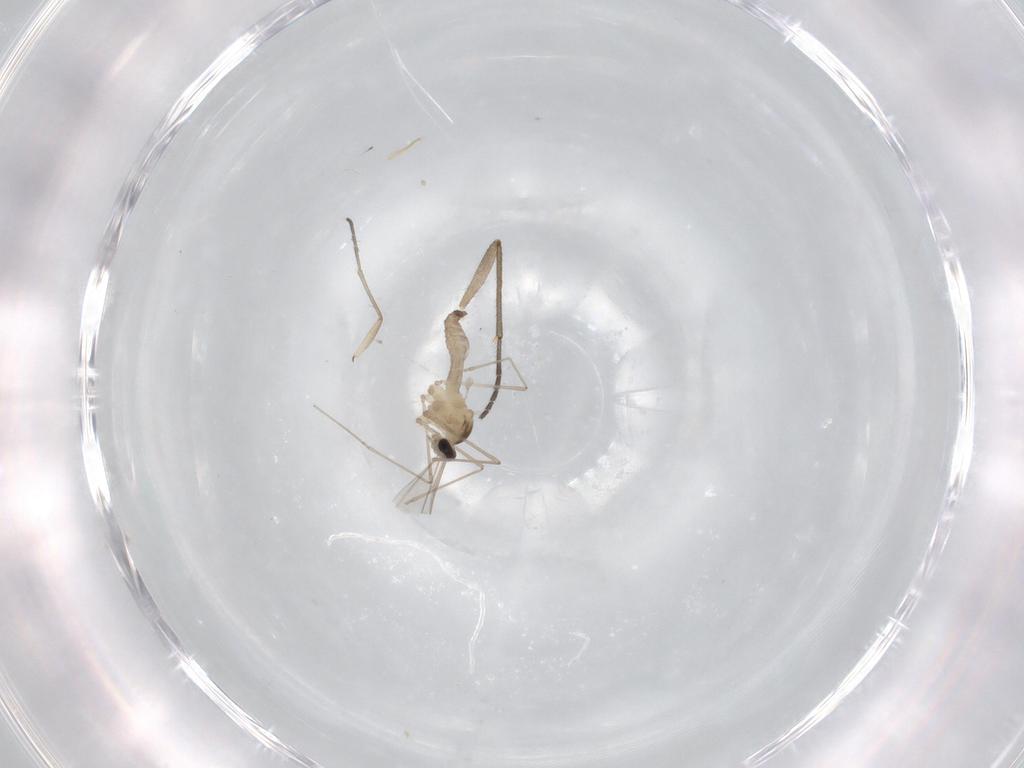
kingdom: Animalia
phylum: Arthropoda
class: Insecta
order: Diptera
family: Cecidomyiidae
